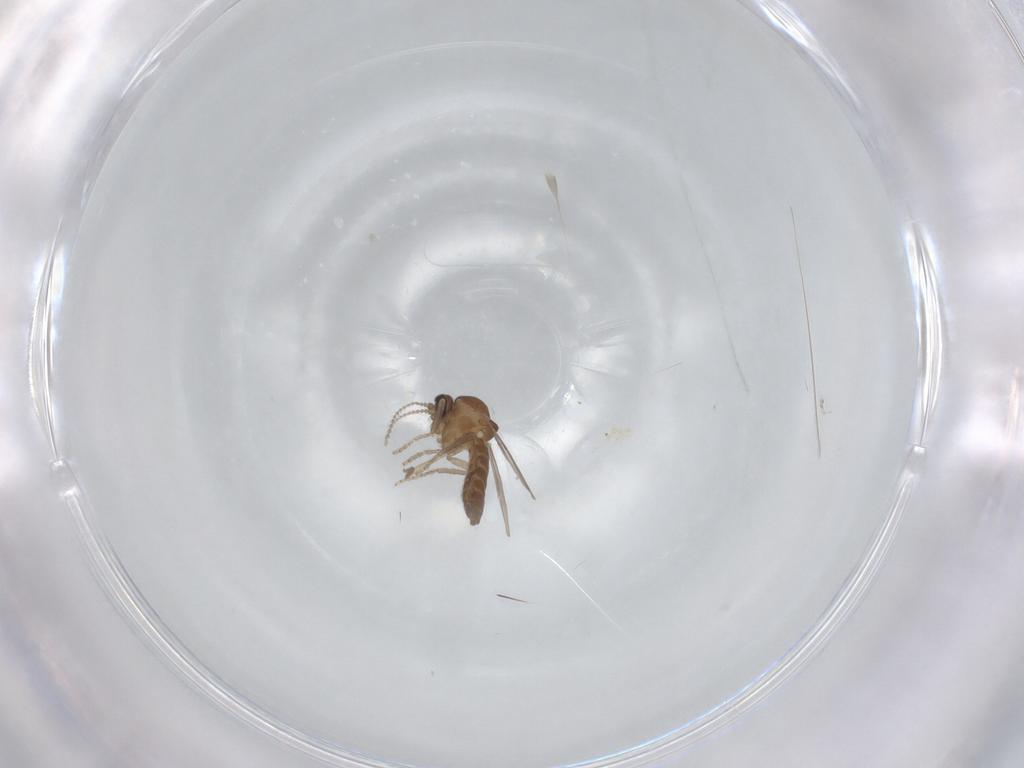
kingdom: Animalia
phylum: Arthropoda
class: Insecta
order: Diptera
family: Ceratopogonidae
